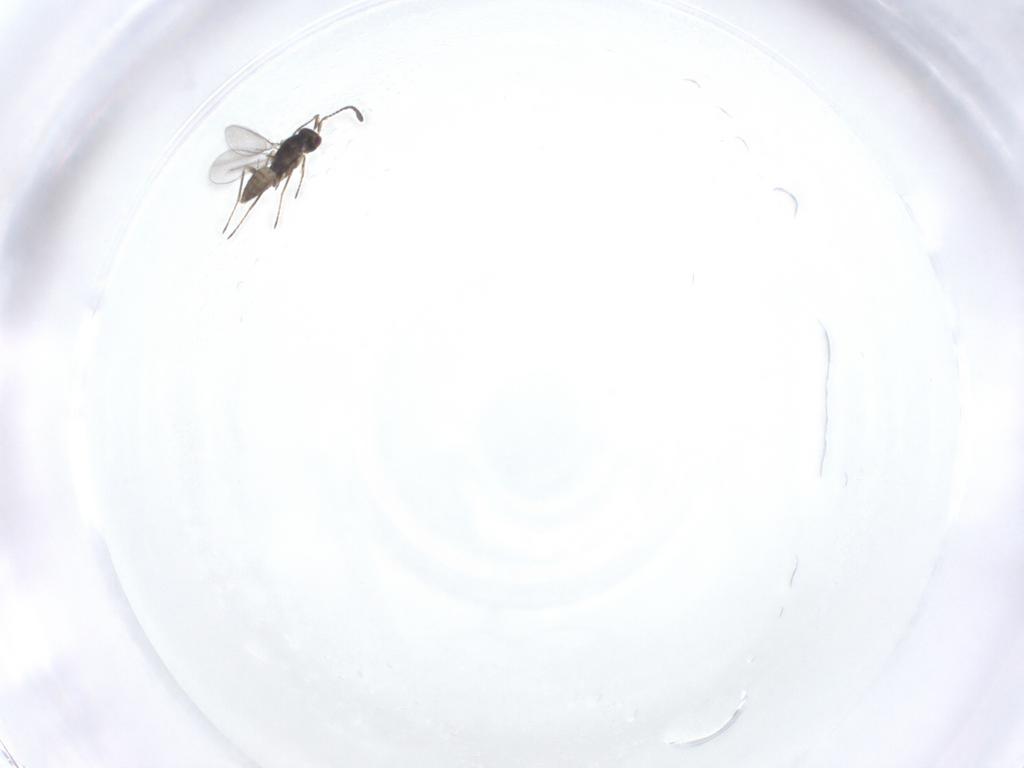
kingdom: Animalia
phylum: Arthropoda
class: Insecta
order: Hymenoptera
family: Mymaridae
